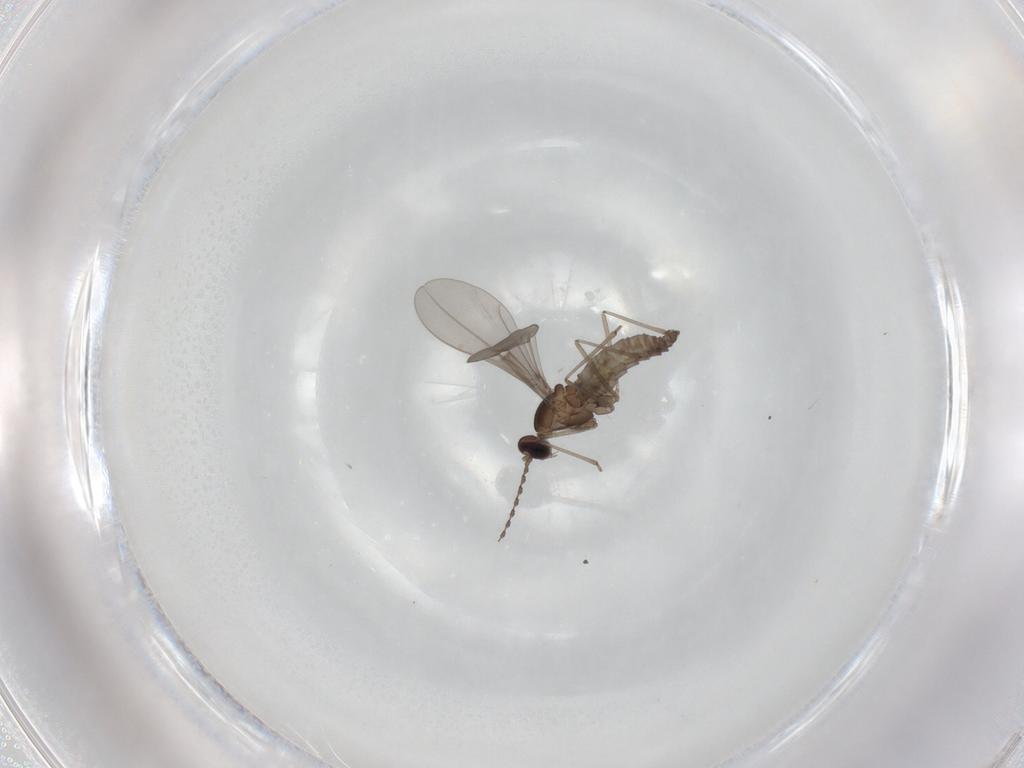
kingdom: Animalia
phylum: Arthropoda
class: Insecta
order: Diptera
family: Cecidomyiidae
